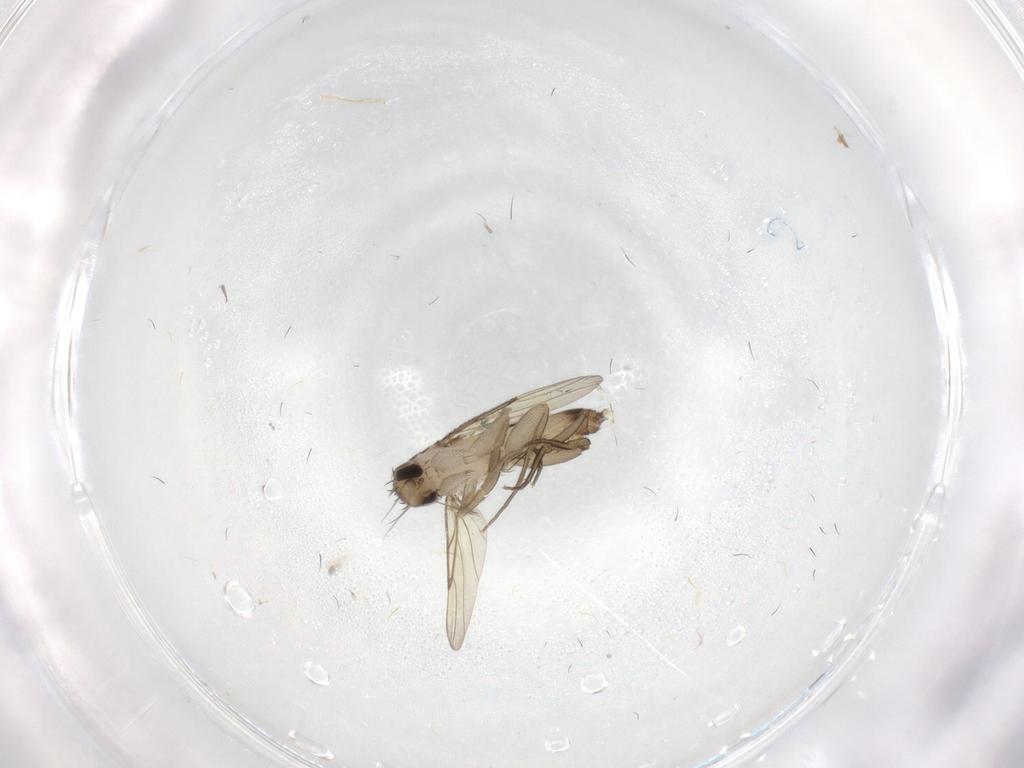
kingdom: Animalia
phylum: Arthropoda
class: Insecta
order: Diptera
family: Phoridae
